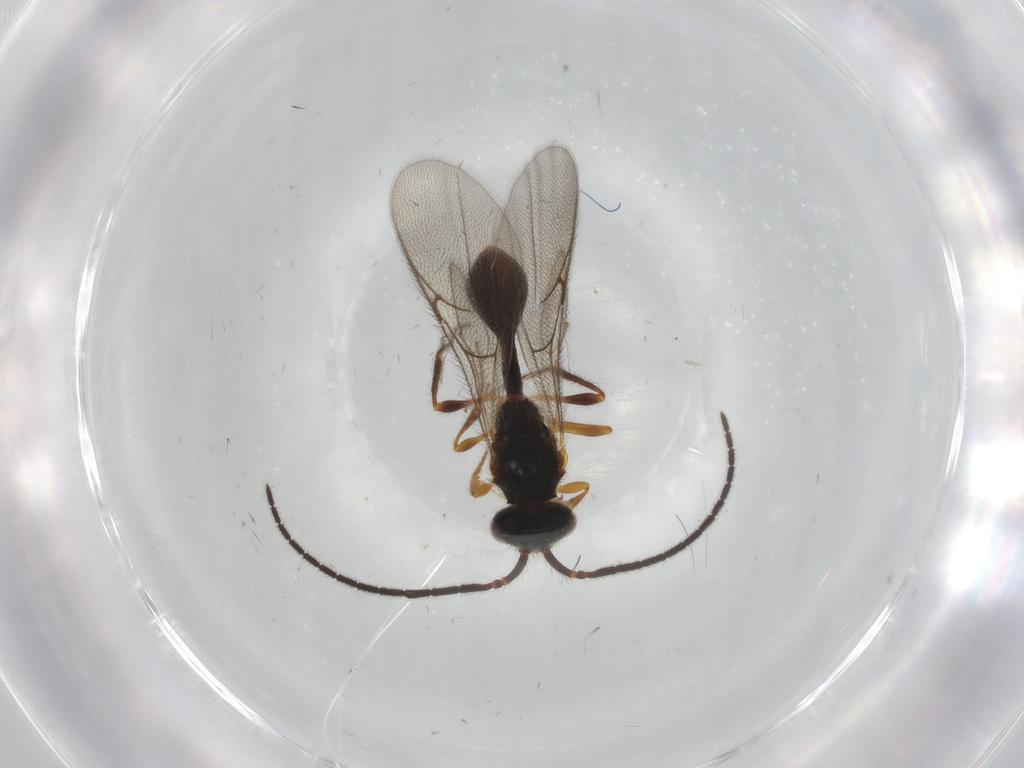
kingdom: Animalia
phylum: Arthropoda
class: Insecta
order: Hymenoptera
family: Diapriidae
